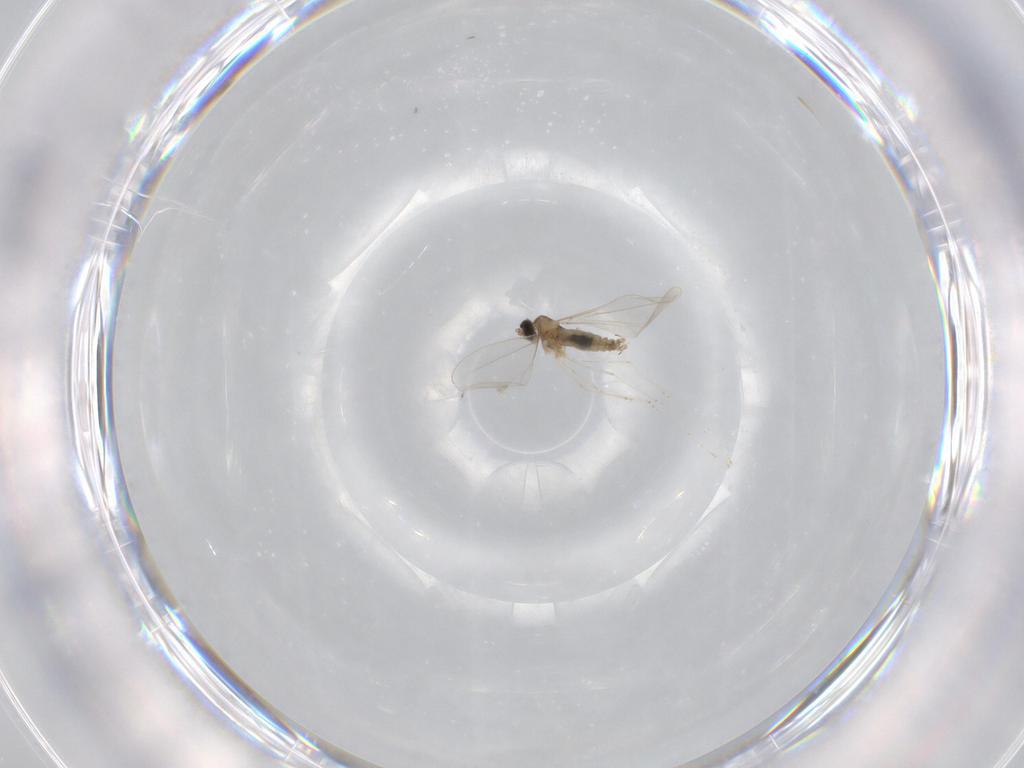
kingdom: Animalia
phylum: Arthropoda
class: Insecta
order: Diptera
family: Cecidomyiidae
